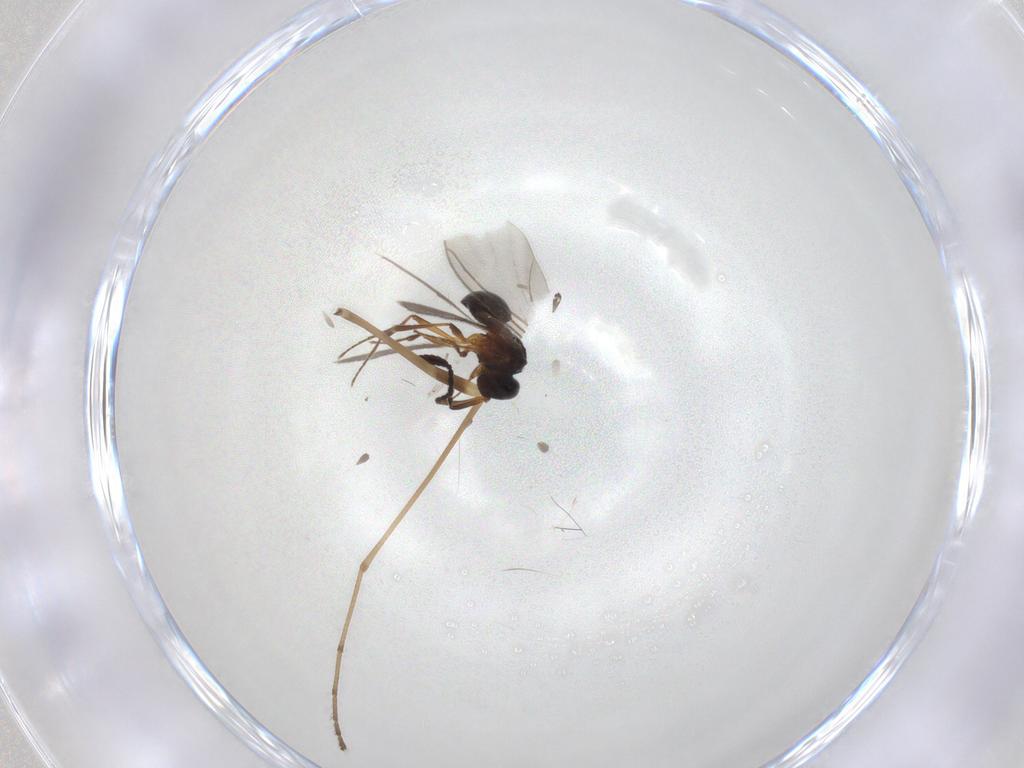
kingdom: Animalia
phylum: Arthropoda
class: Insecta
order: Hymenoptera
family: Scelionidae
